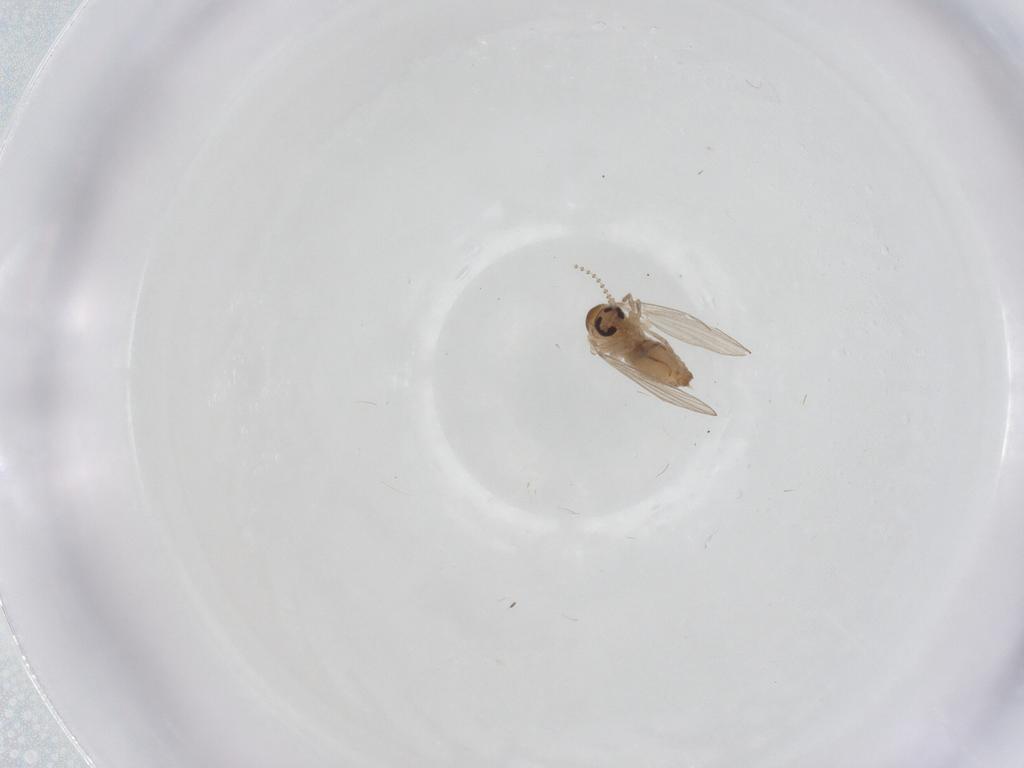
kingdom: Animalia
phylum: Arthropoda
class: Insecta
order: Diptera
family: Psychodidae
